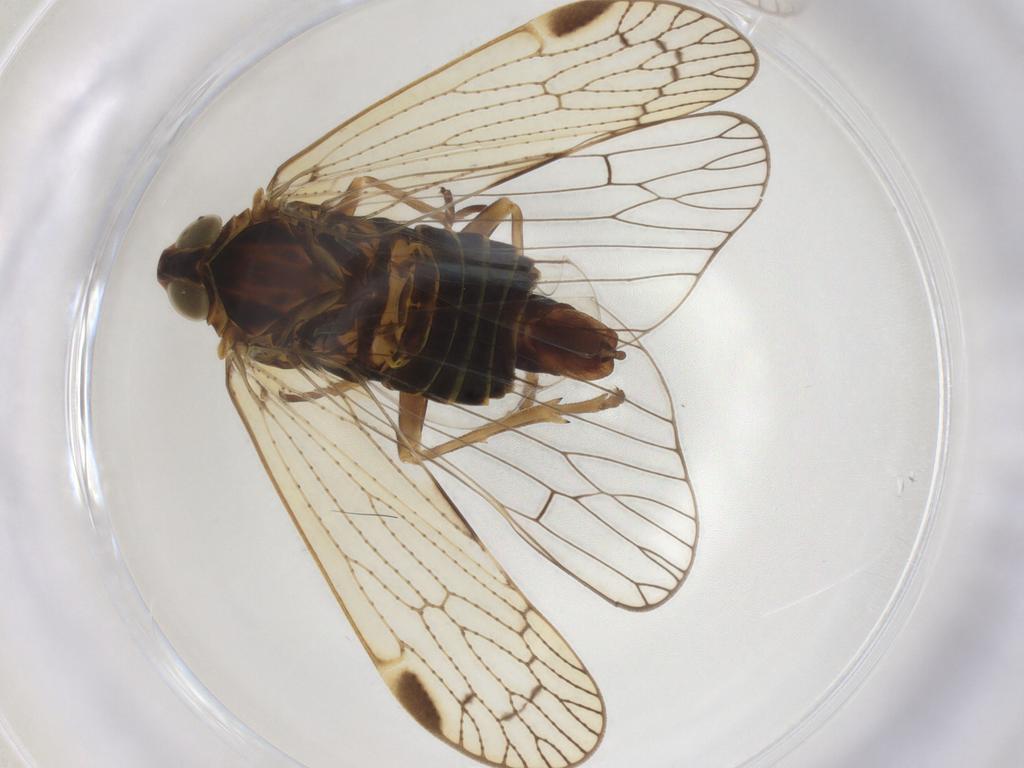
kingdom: Animalia
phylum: Arthropoda
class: Insecta
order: Hemiptera
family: Cixiidae
